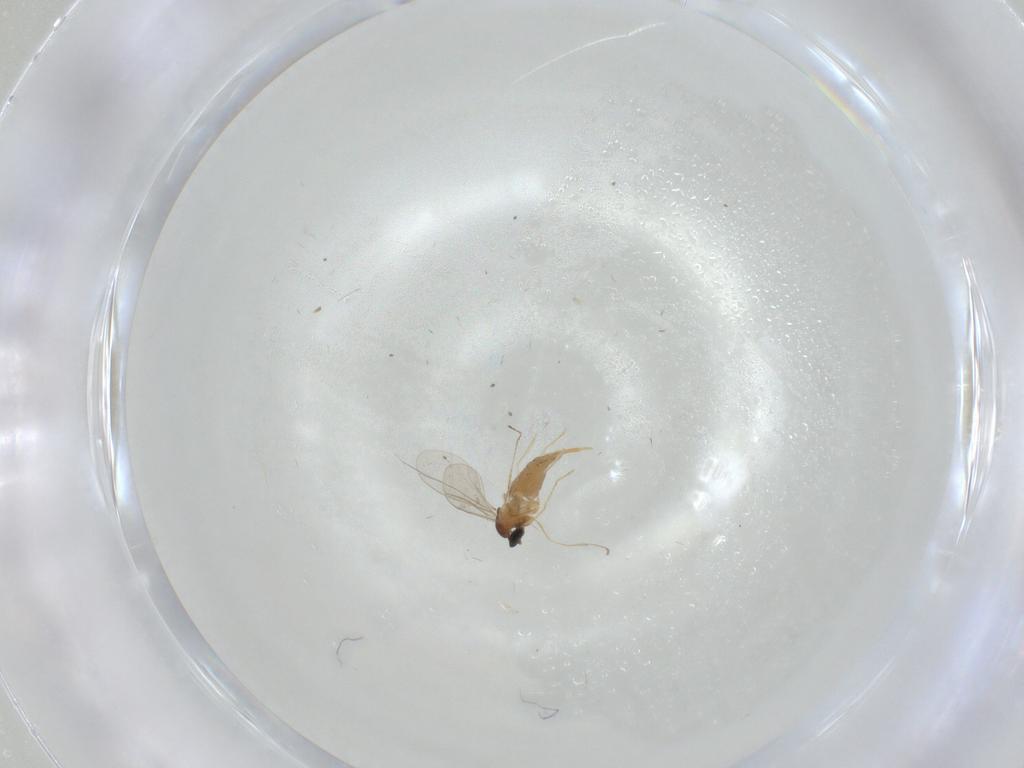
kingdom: Animalia
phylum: Arthropoda
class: Insecta
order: Diptera
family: Cecidomyiidae
